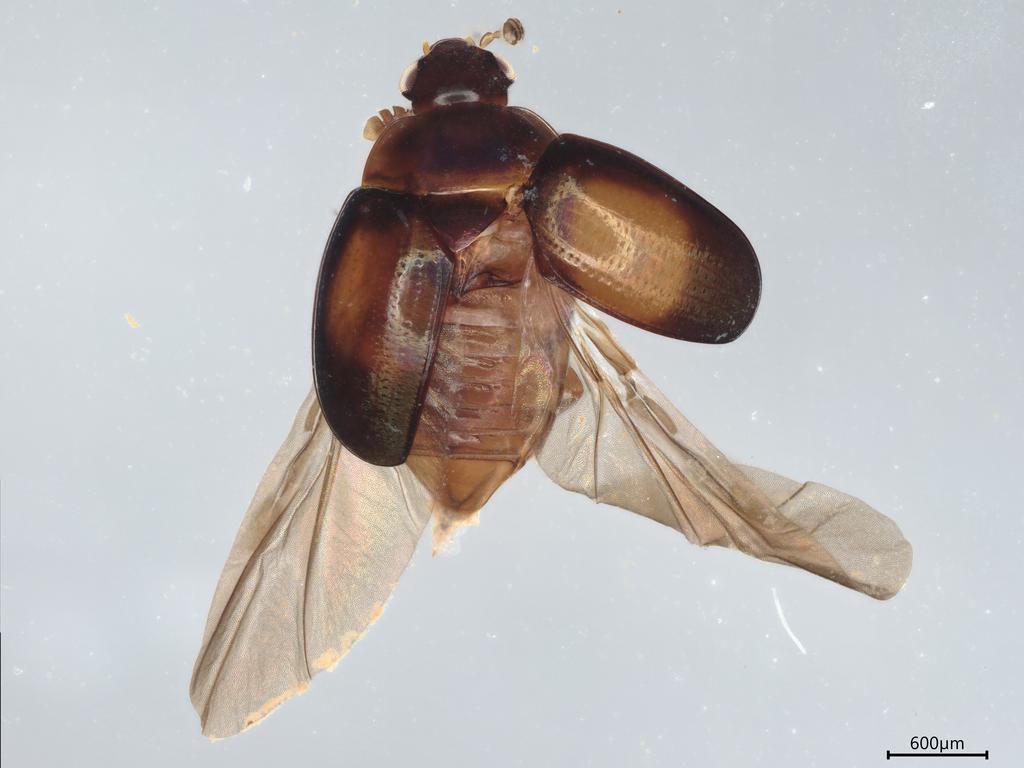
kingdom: Animalia
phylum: Arthropoda
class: Insecta
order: Coleoptera
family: Nitidulidae
